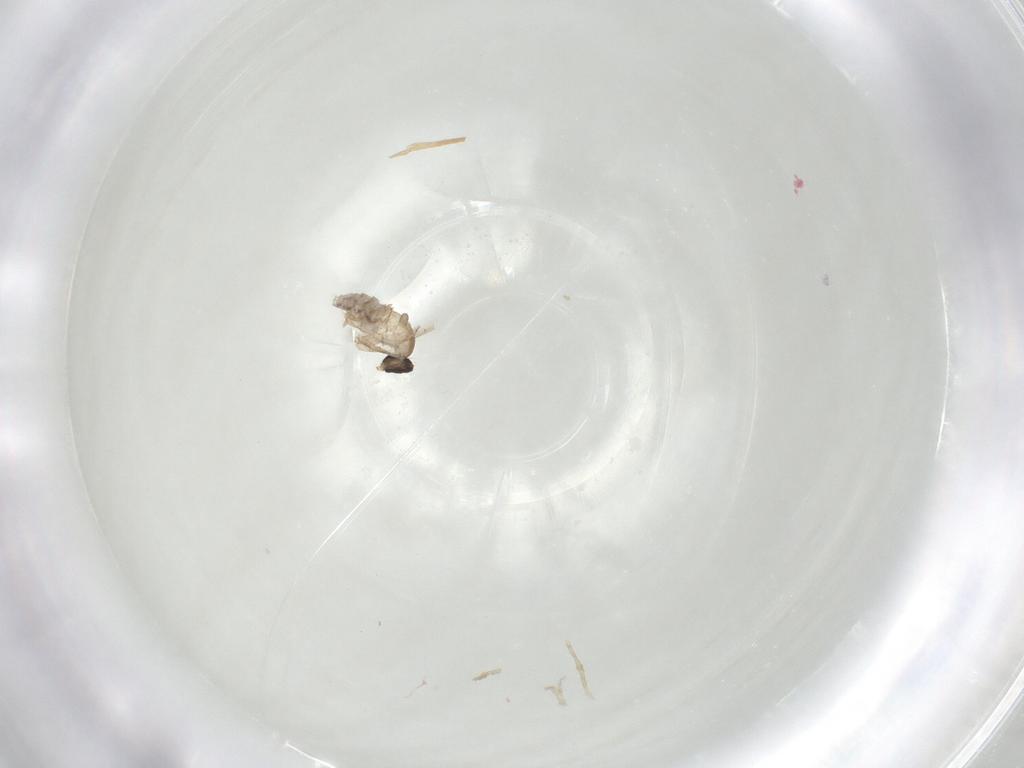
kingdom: Animalia
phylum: Arthropoda
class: Insecta
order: Diptera
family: Cecidomyiidae
